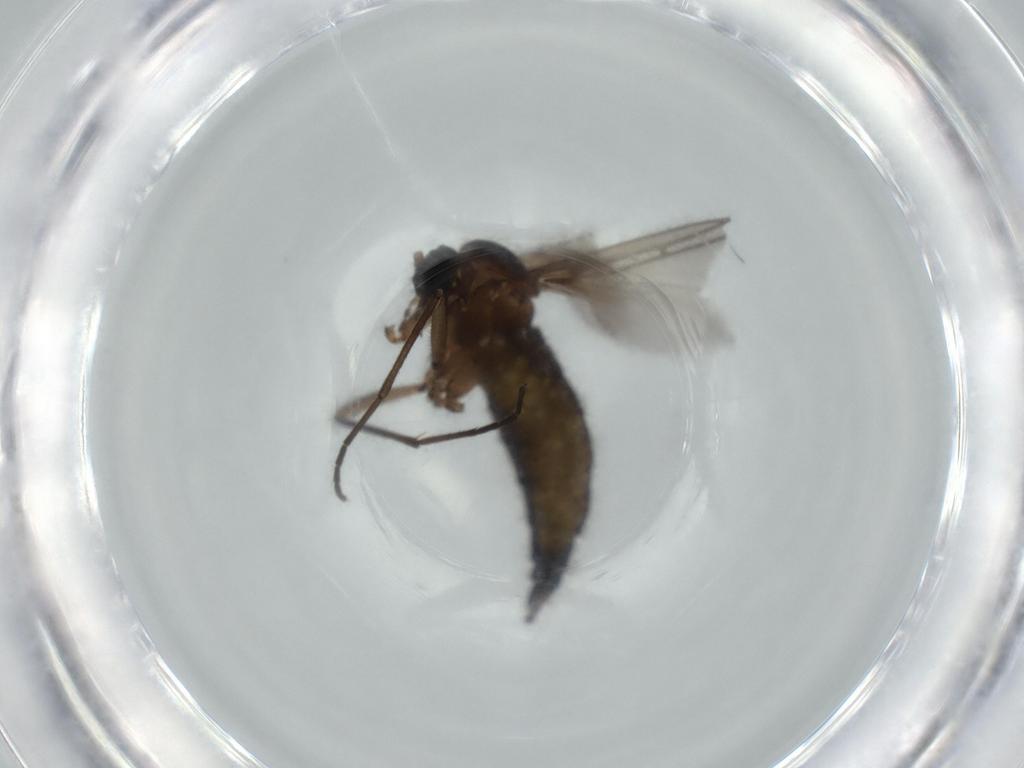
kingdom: Animalia
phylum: Arthropoda
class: Insecta
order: Diptera
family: Sciaridae
